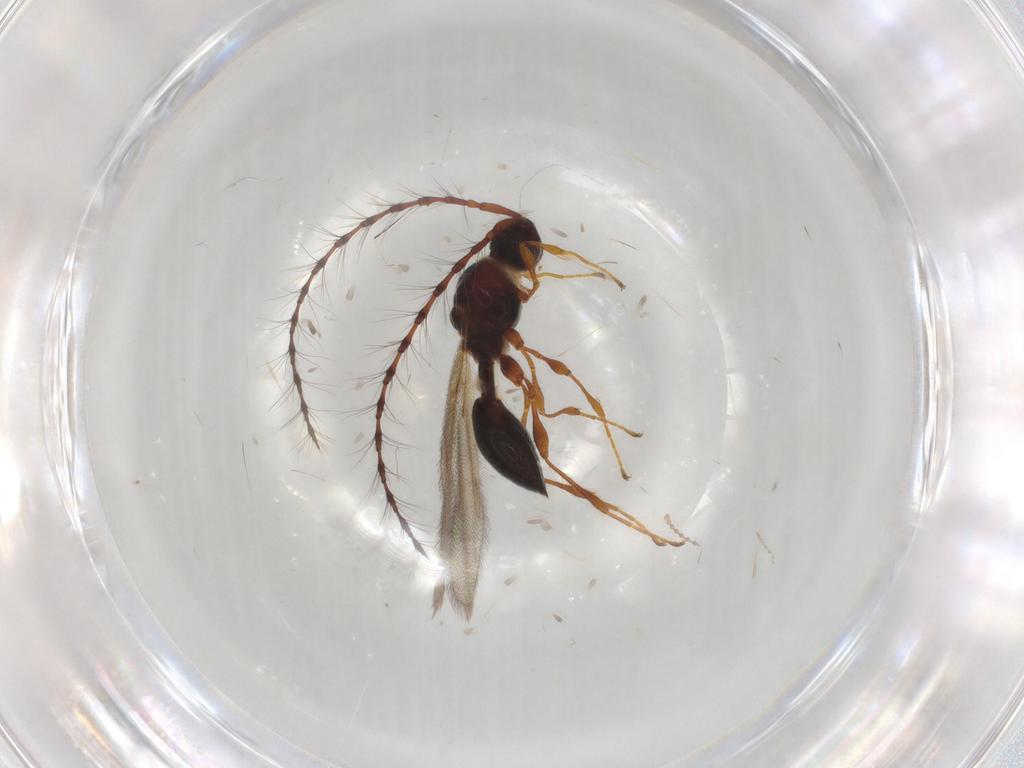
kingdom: Animalia
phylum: Arthropoda
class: Insecta
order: Hymenoptera
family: Diapriidae
